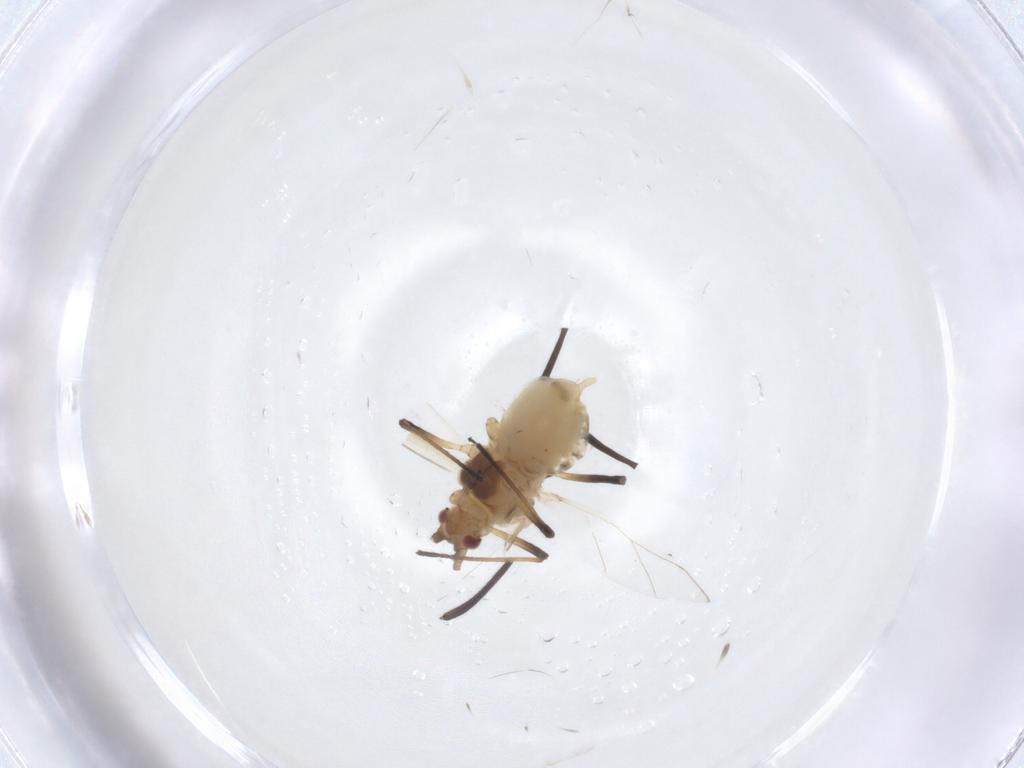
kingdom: Animalia
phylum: Arthropoda
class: Insecta
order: Hemiptera
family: Aphididae
